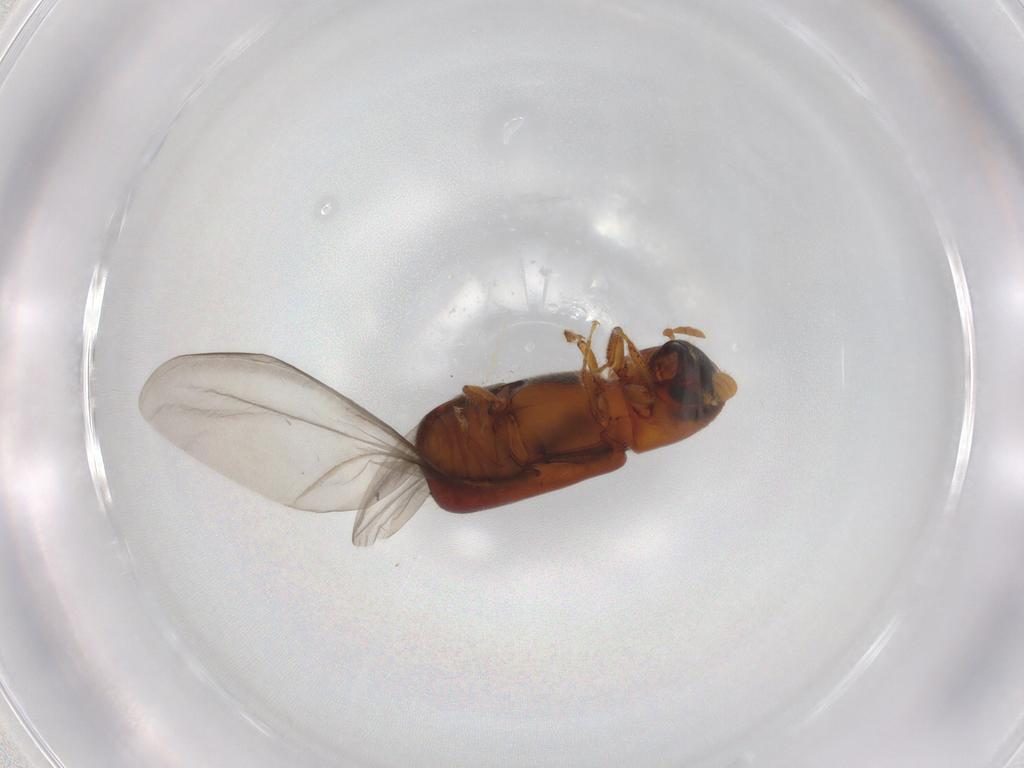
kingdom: Animalia
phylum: Arthropoda
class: Insecta
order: Coleoptera
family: Curculionidae
